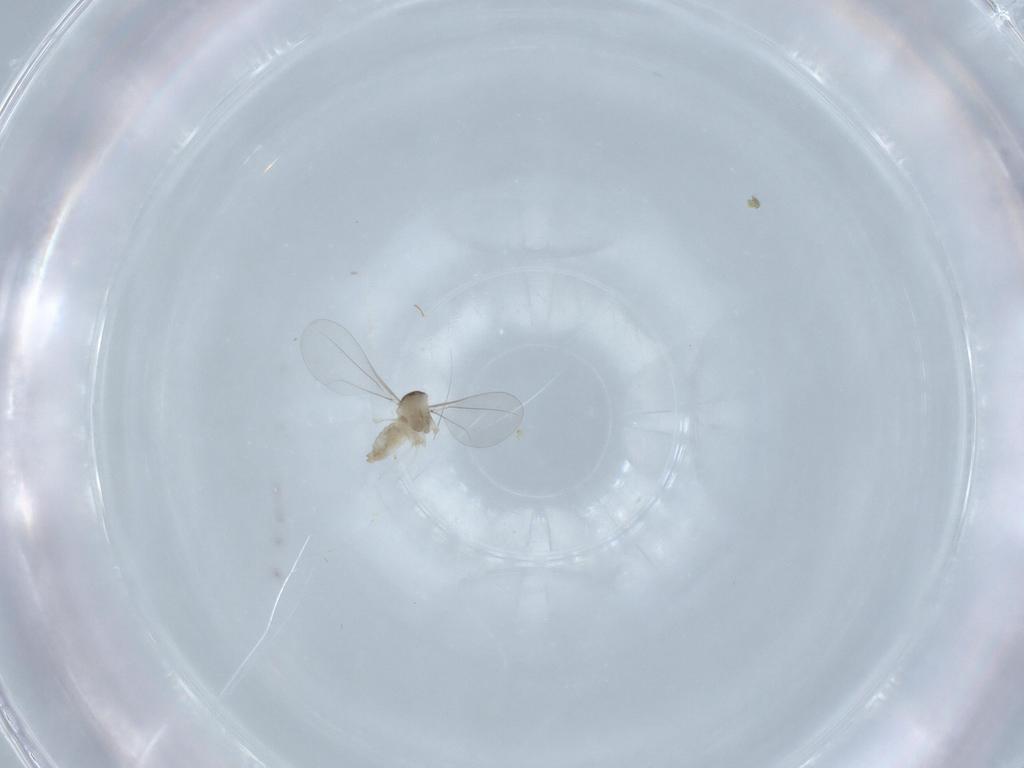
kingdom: Animalia
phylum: Arthropoda
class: Insecta
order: Diptera
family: Cecidomyiidae
